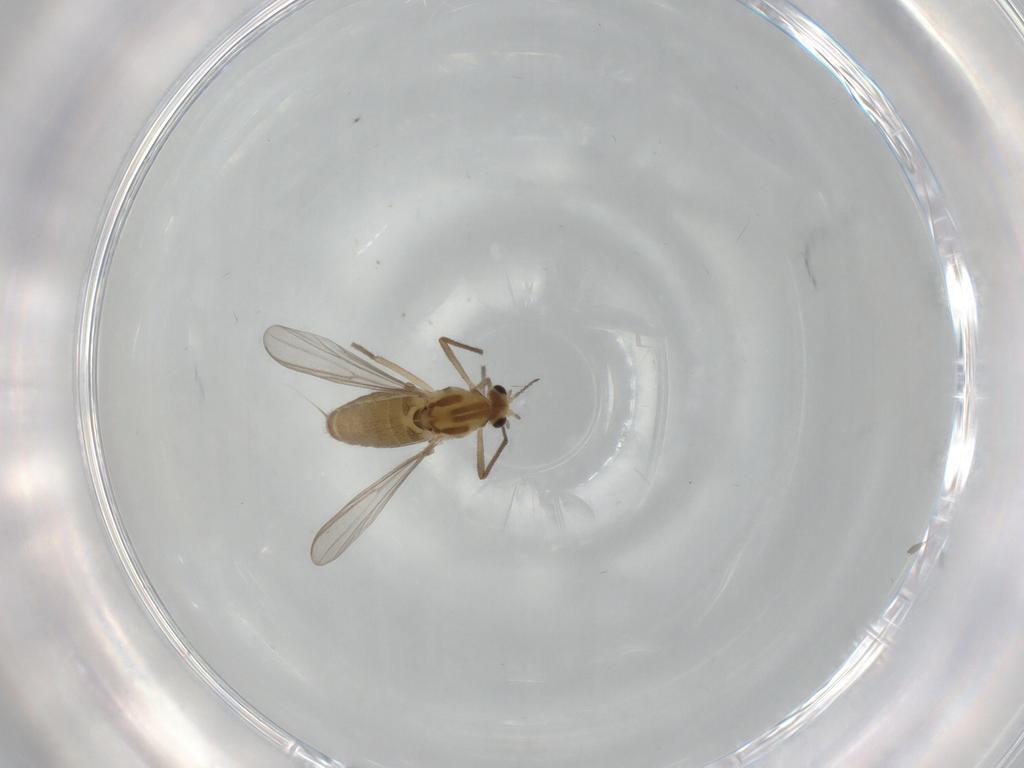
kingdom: Animalia
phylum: Arthropoda
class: Insecta
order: Diptera
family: Chironomidae
